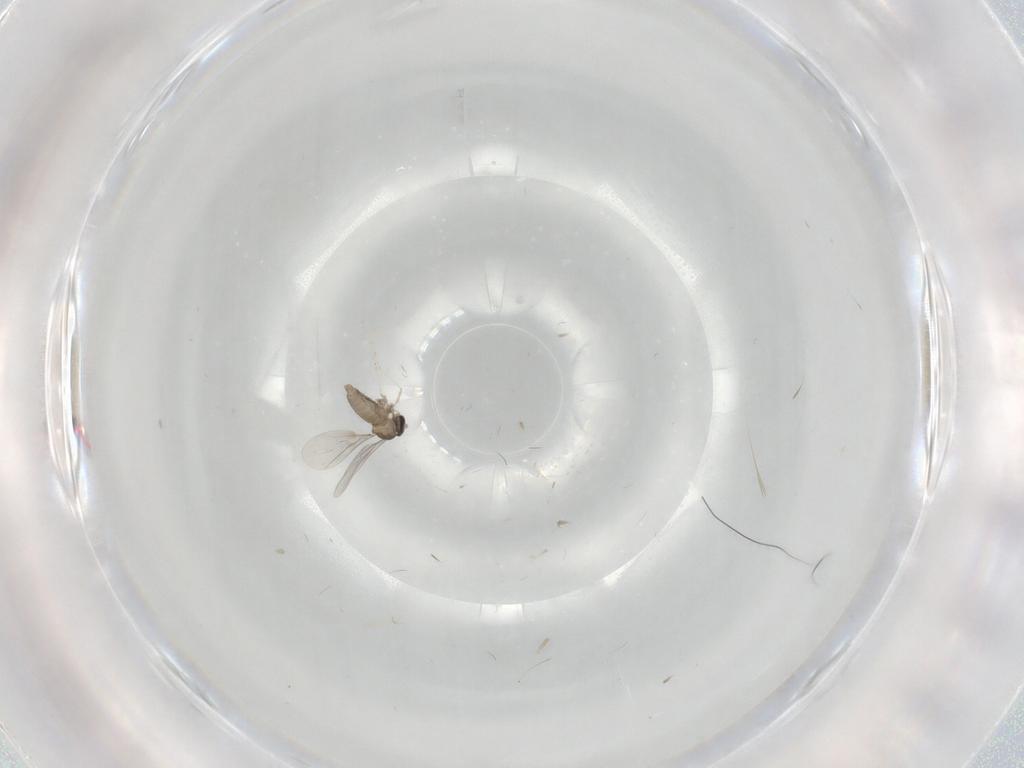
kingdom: Animalia
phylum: Arthropoda
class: Insecta
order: Diptera
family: Cecidomyiidae
